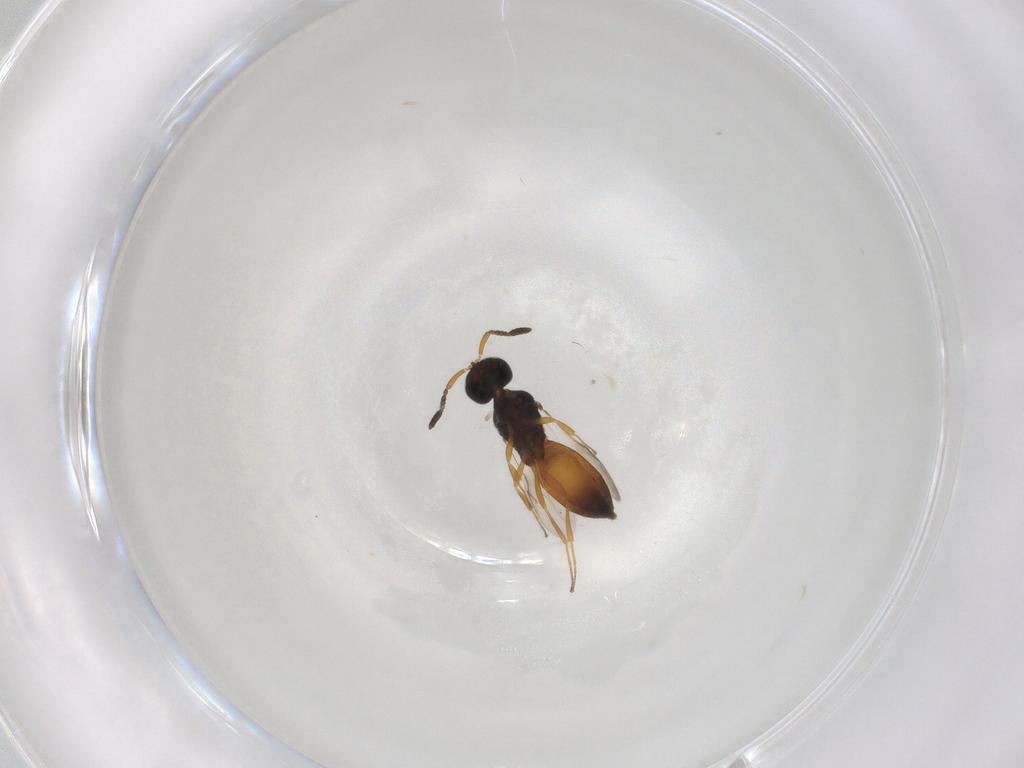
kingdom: Animalia
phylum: Arthropoda
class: Insecta
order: Hymenoptera
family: Scelionidae
